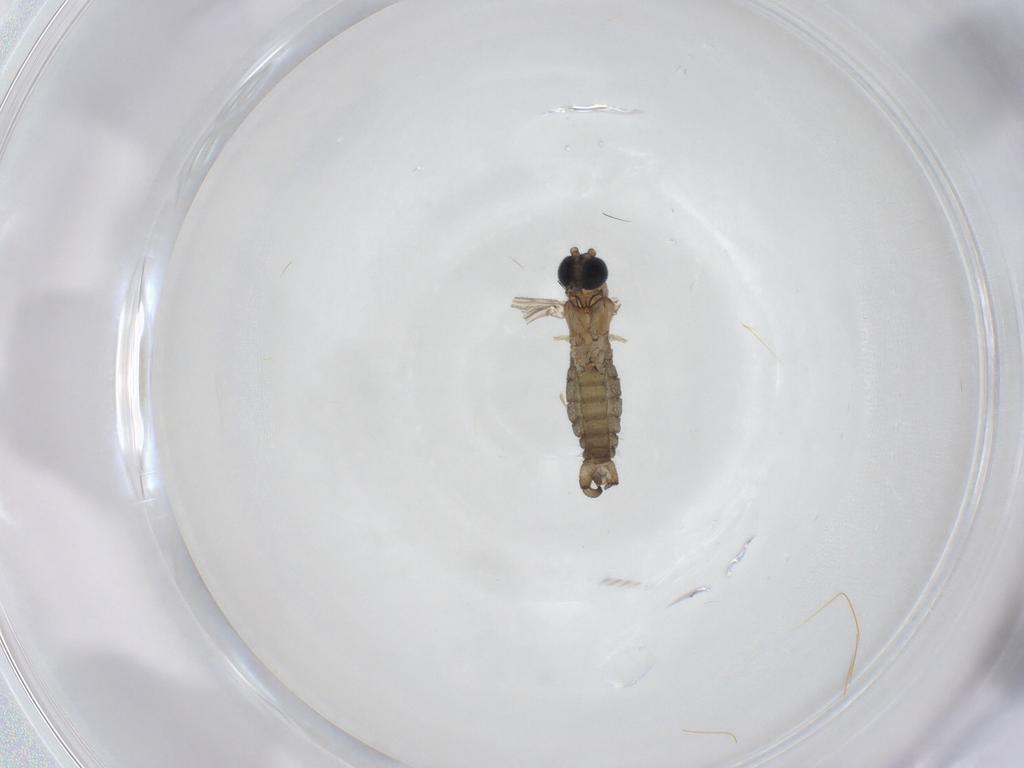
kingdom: Animalia
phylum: Arthropoda
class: Insecta
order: Diptera
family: Sciaridae
